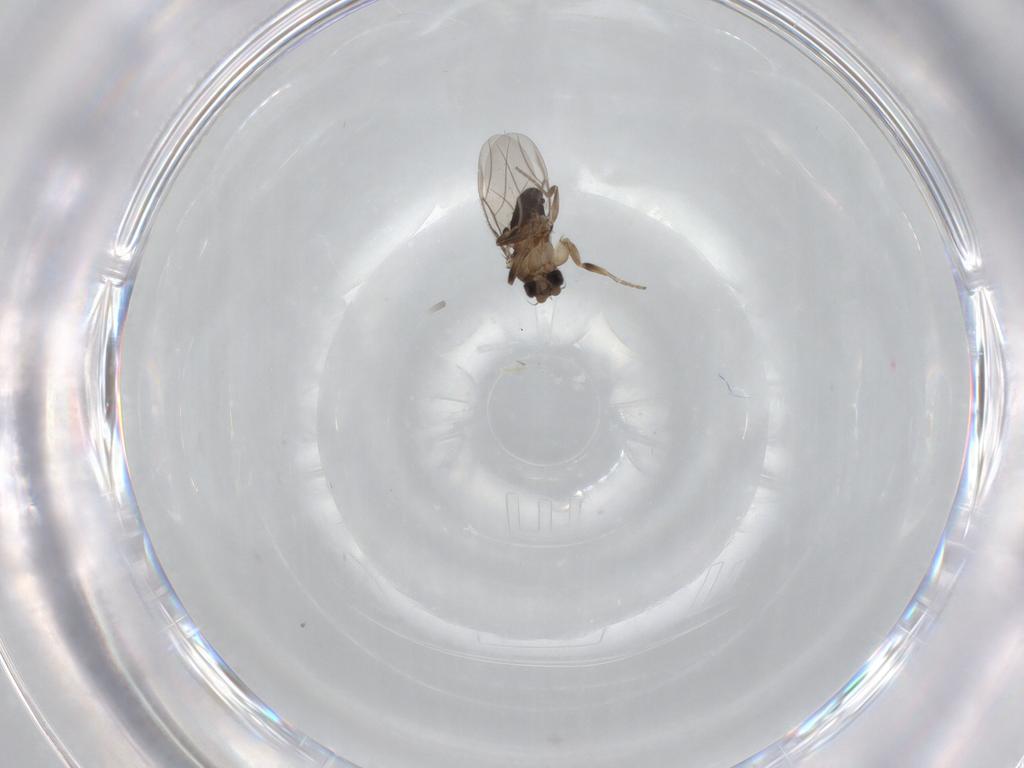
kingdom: Animalia
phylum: Arthropoda
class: Insecta
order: Diptera
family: Phoridae
